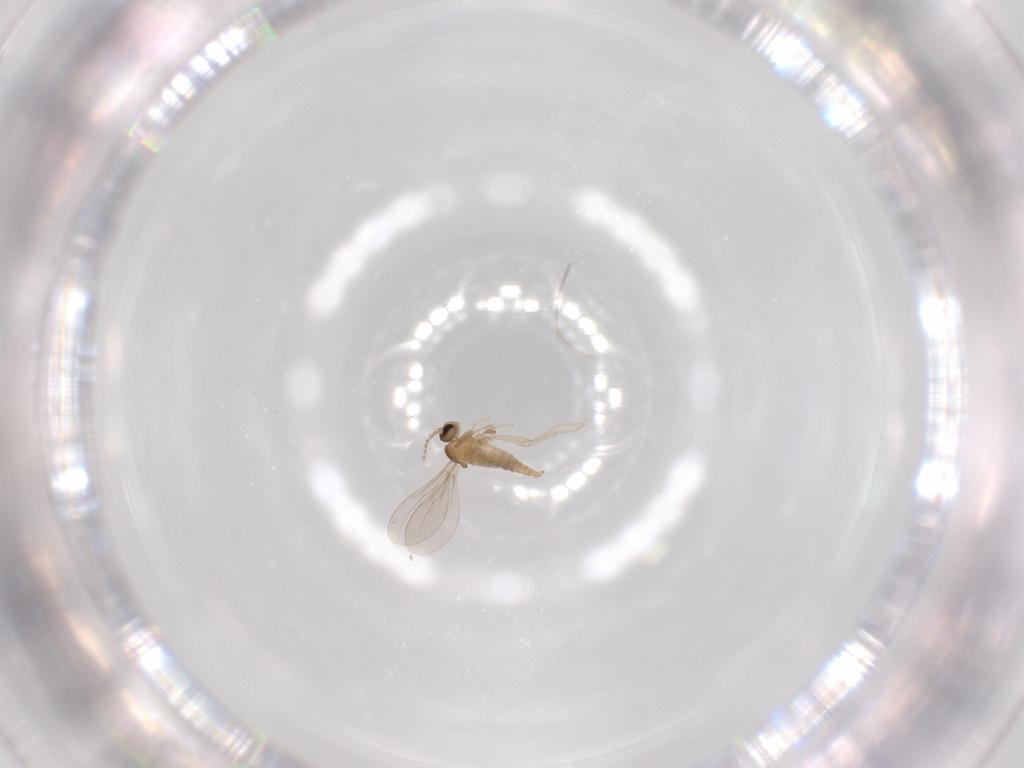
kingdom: Animalia
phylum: Arthropoda
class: Insecta
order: Diptera
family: Cecidomyiidae
